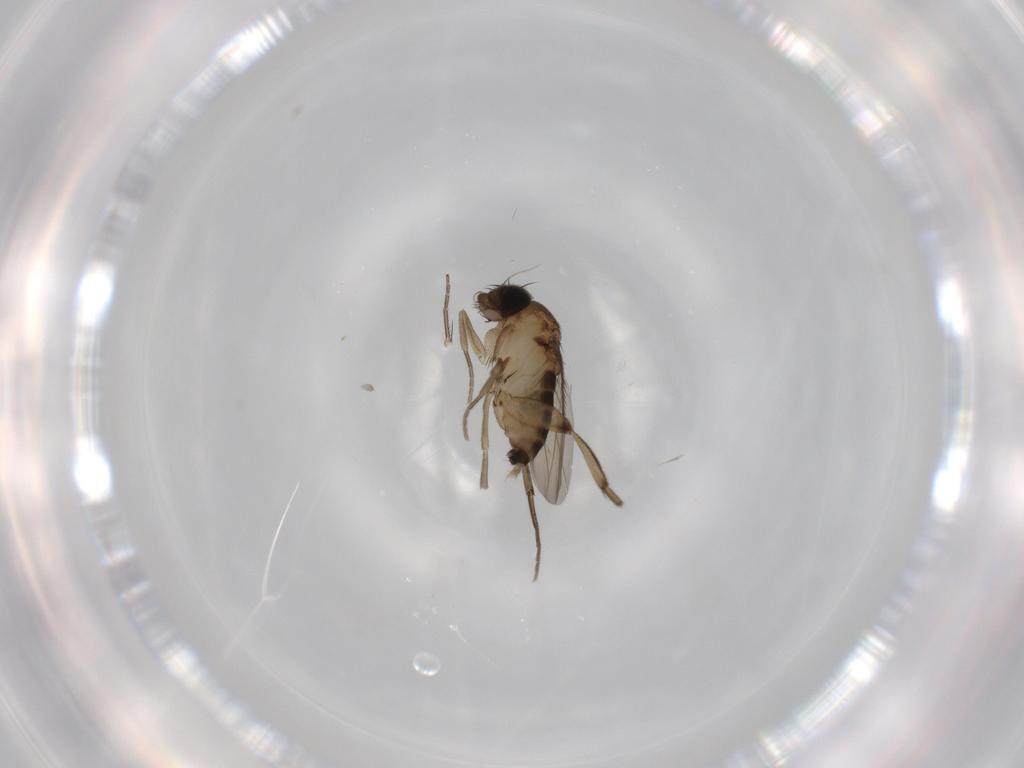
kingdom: Animalia
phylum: Arthropoda
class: Insecta
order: Diptera
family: Phoridae
